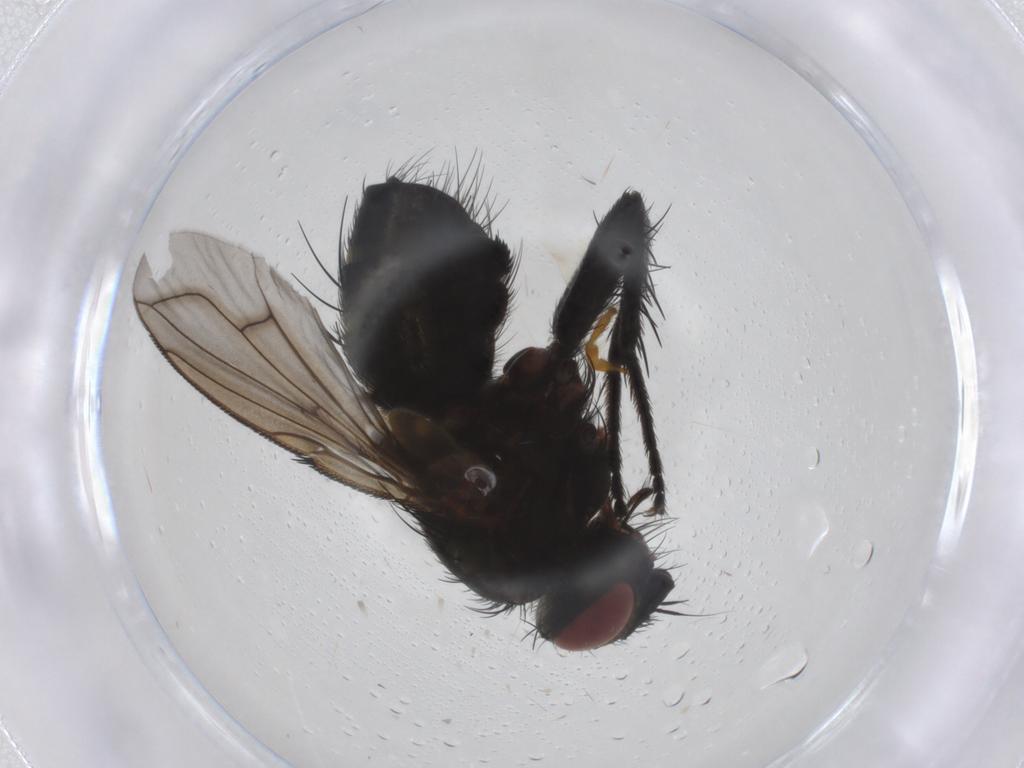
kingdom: Animalia
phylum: Arthropoda
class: Insecta
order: Diptera
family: Tachinidae
